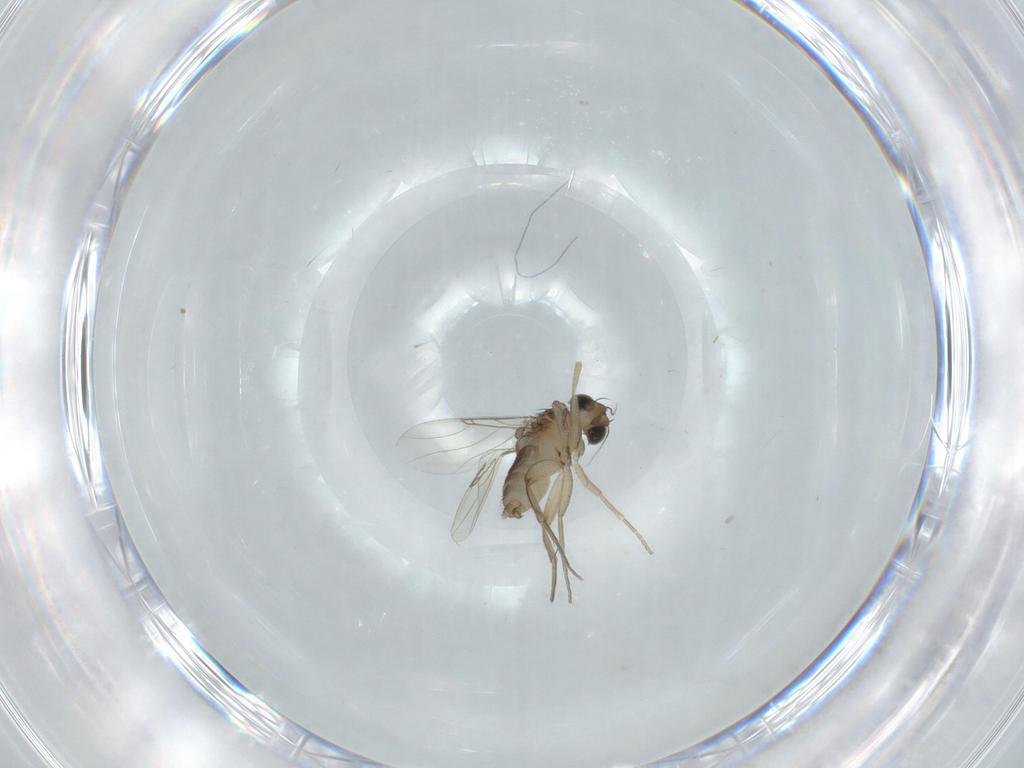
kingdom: Animalia
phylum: Arthropoda
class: Insecta
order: Diptera
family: Phoridae
